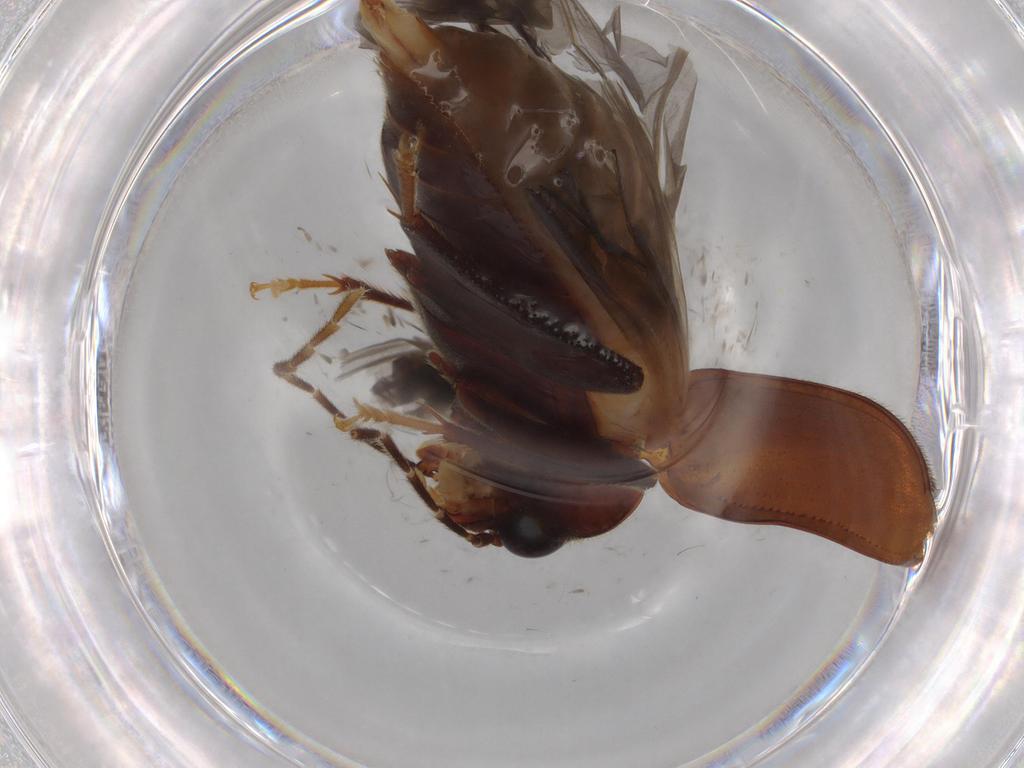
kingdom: Animalia
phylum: Arthropoda
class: Insecta
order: Coleoptera
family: Ptilodactylidae
